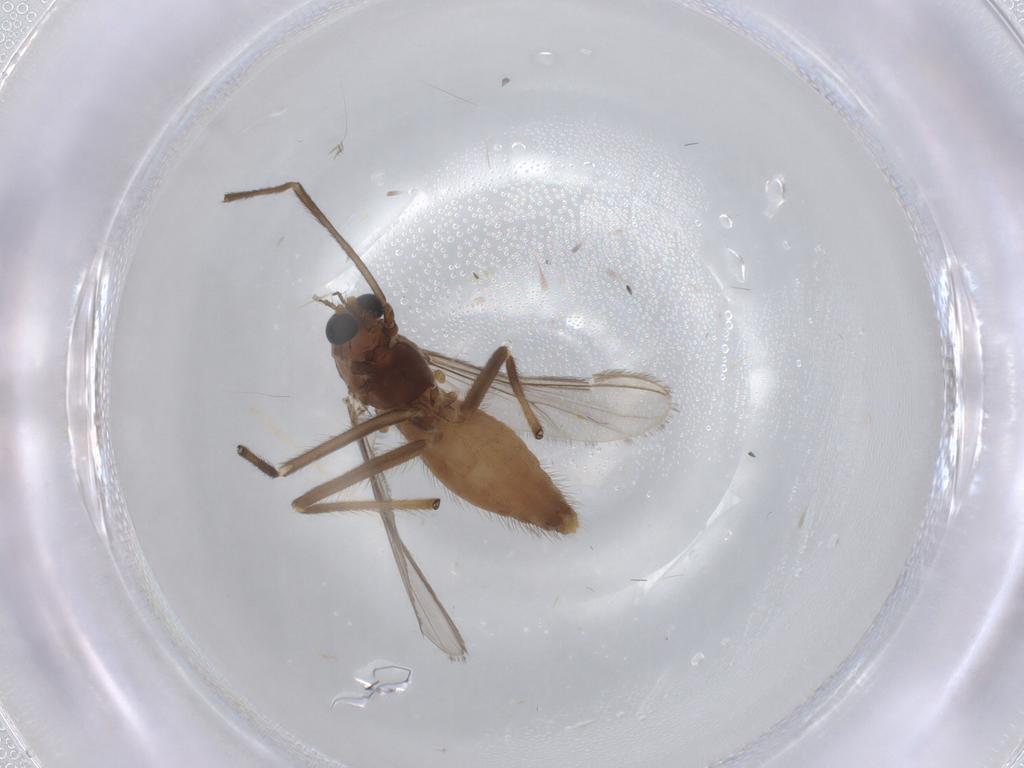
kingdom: Animalia
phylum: Arthropoda
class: Insecta
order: Diptera
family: Chironomidae
